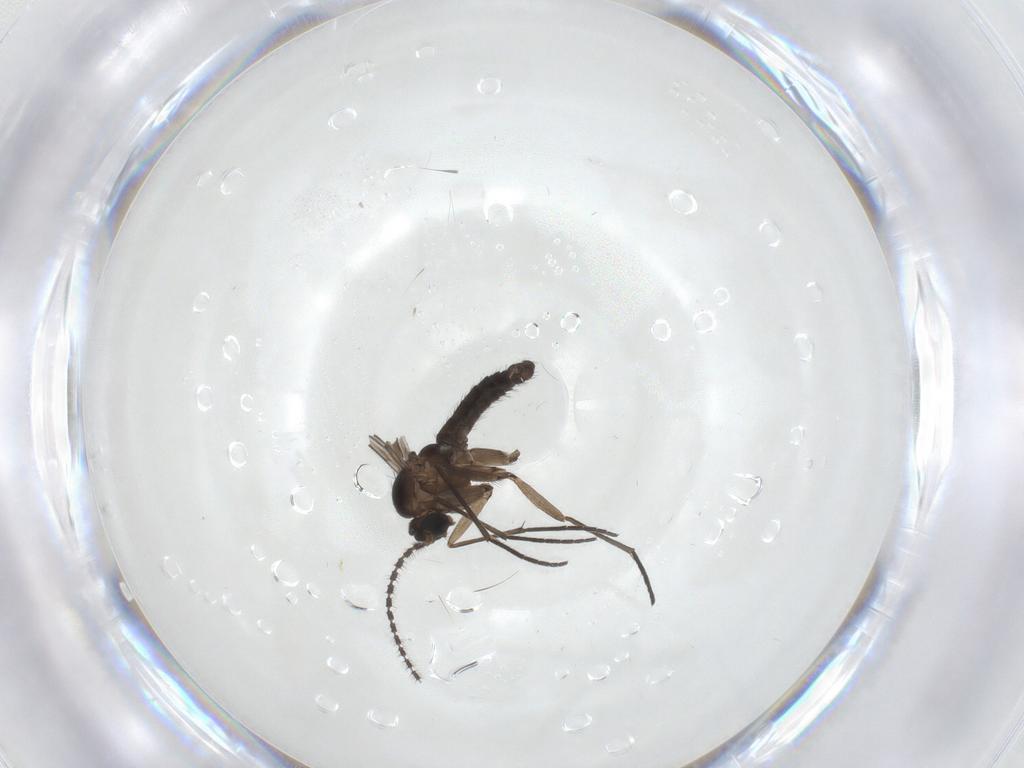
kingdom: Animalia
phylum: Arthropoda
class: Insecta
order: Diptera
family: Sciaridae
